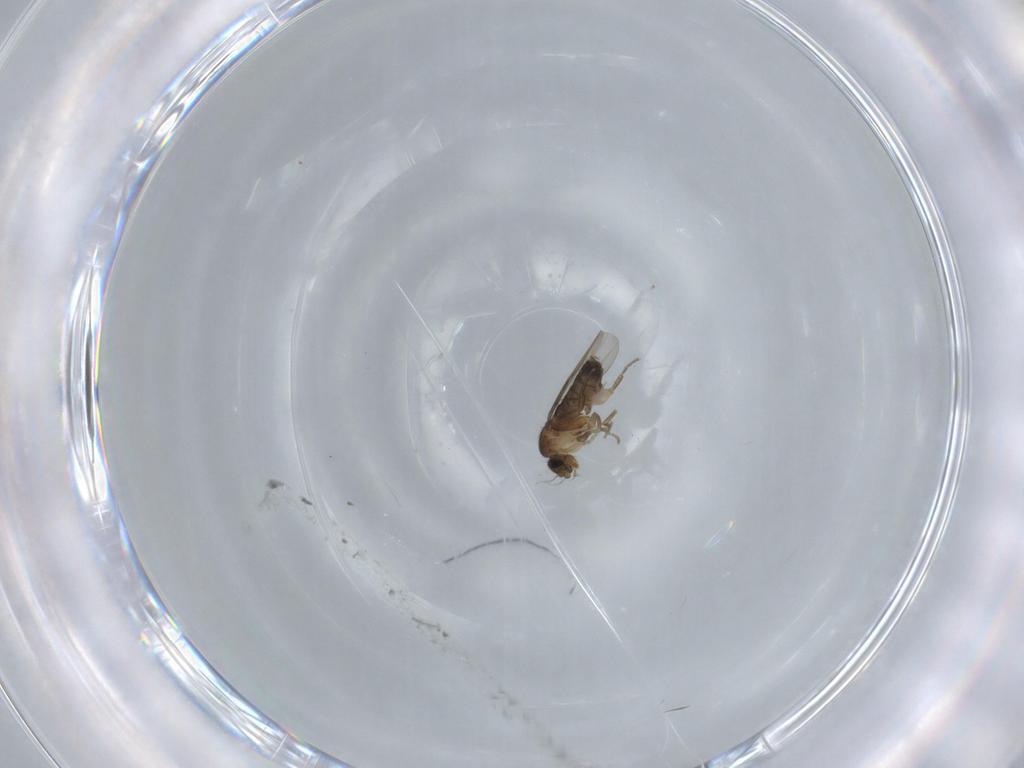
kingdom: Animalia
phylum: Arthropoda
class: Insecta
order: Diptera
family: Phoridae
